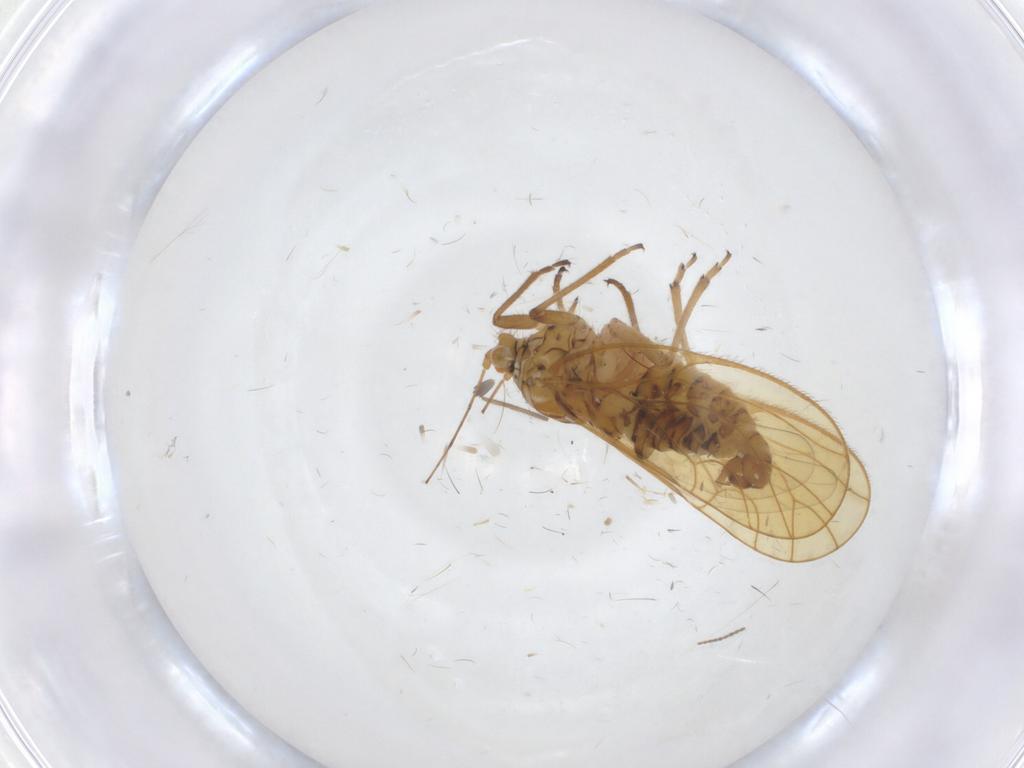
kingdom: Animalia
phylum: Arthropoda
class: Insecta
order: Hemiptera
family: Psyllidae
